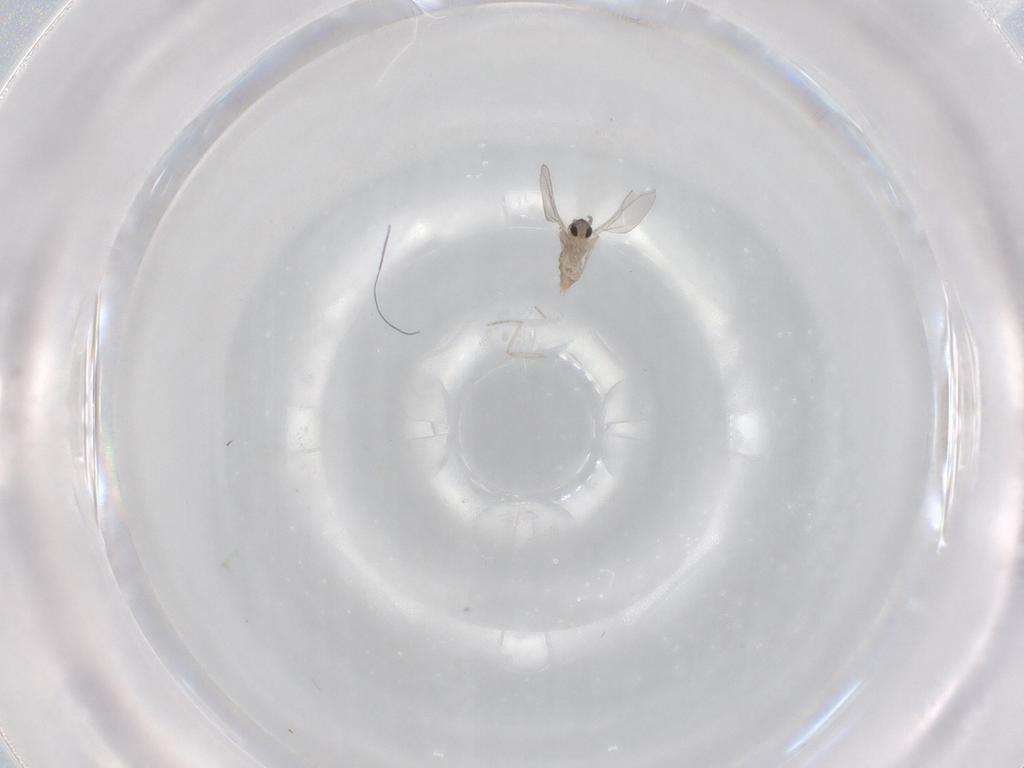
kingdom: Animalia
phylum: Arthropoda
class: Insecta
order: Diptera
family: Cecidomyiidae
